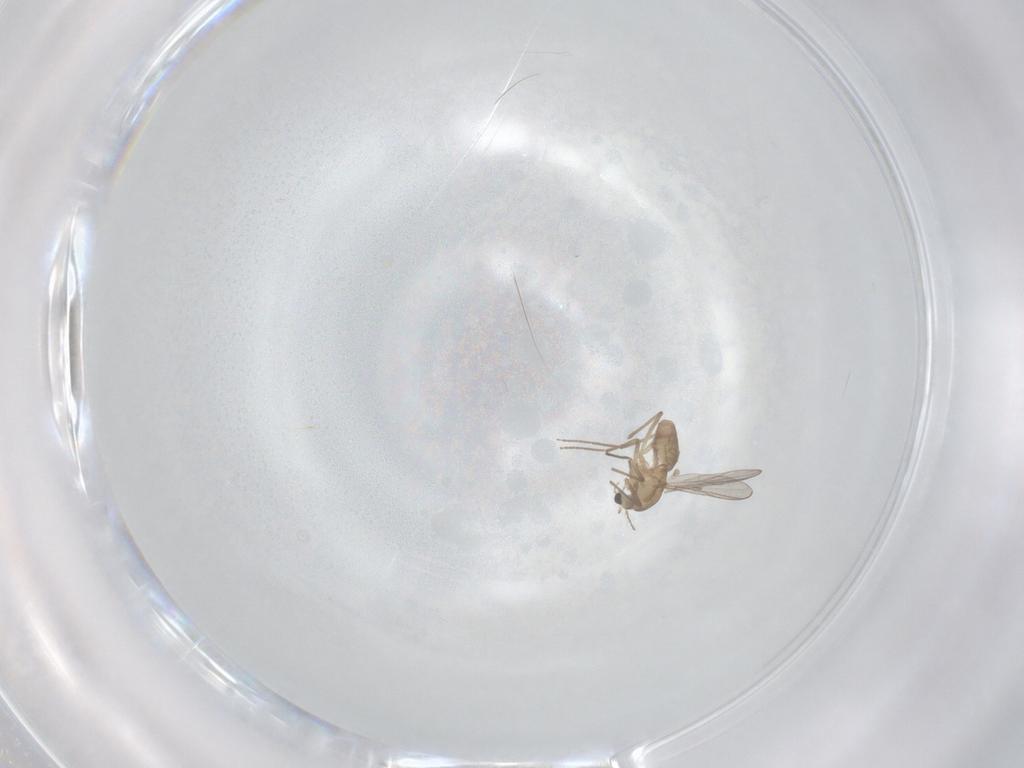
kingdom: Animalia
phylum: Arthropoda
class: Insecta
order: Diptera
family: Chironomidae
